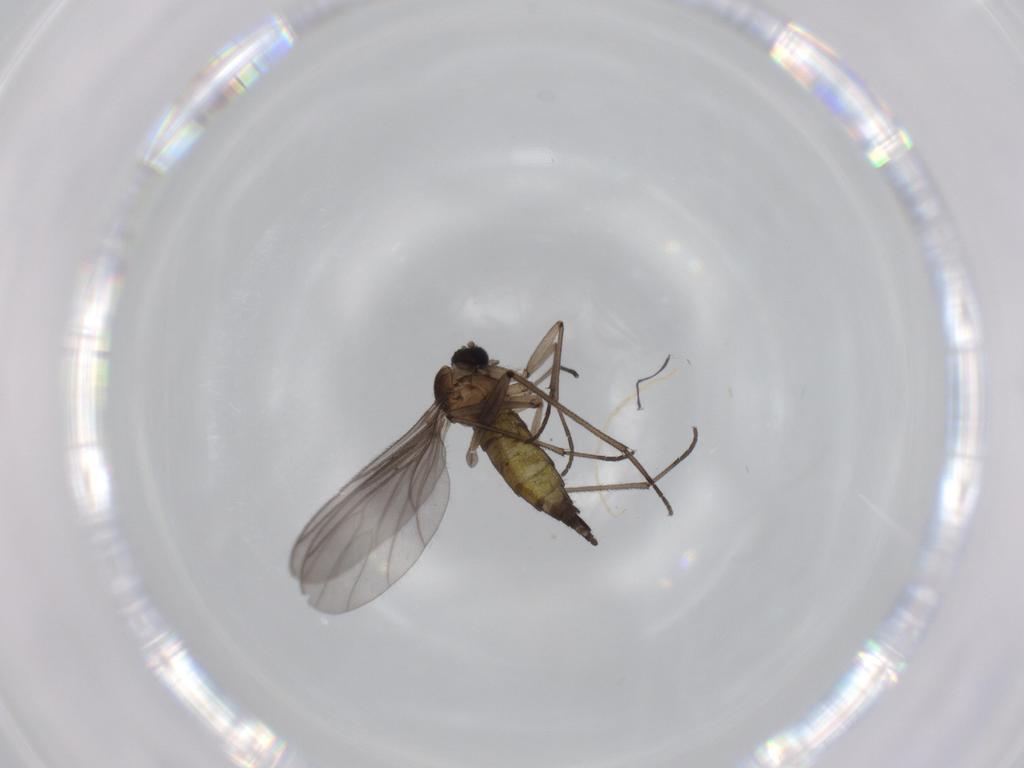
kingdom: Animalia
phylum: Arthropoda
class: Insecta
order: Diptera
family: Sciaridae
